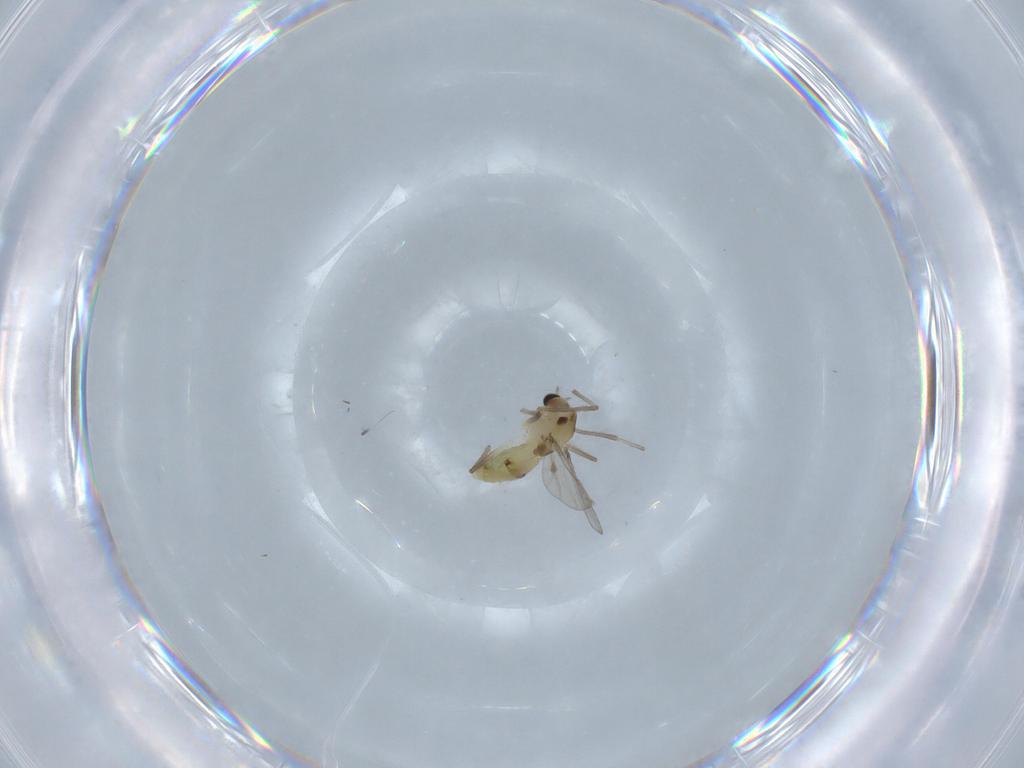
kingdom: Animalia
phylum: Arthropoda
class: Insecta
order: Diptera
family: Chironomidae
